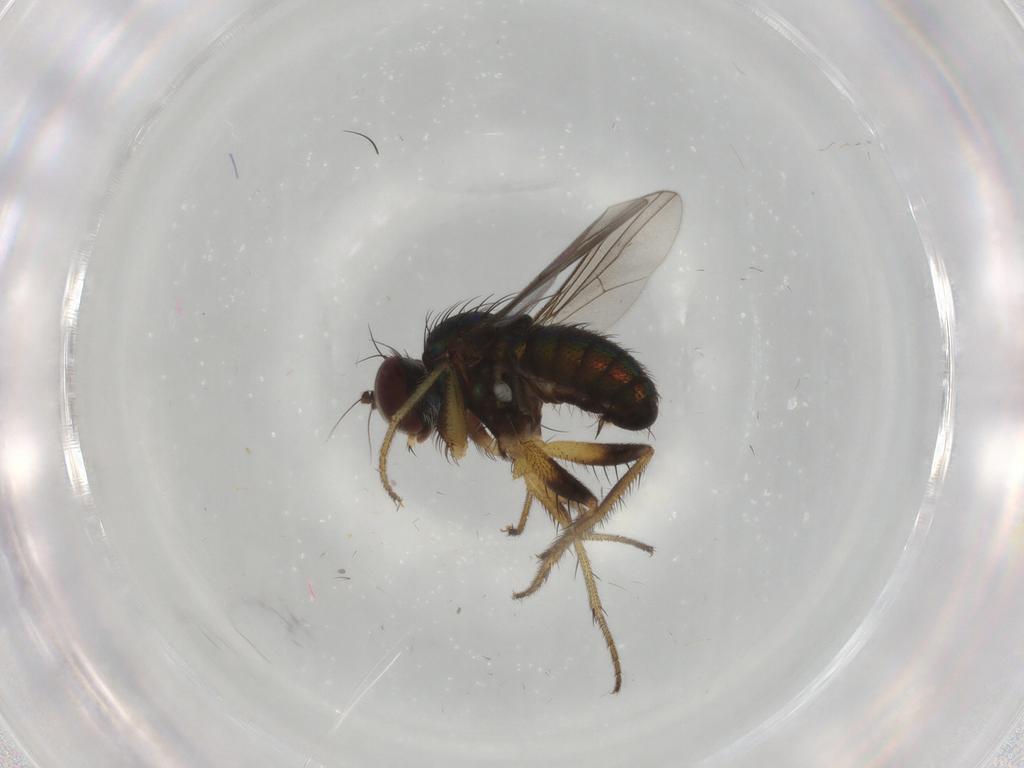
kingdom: Animalia
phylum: Arthropoda
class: Insecta
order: Diptera
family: Dolichopodidae
